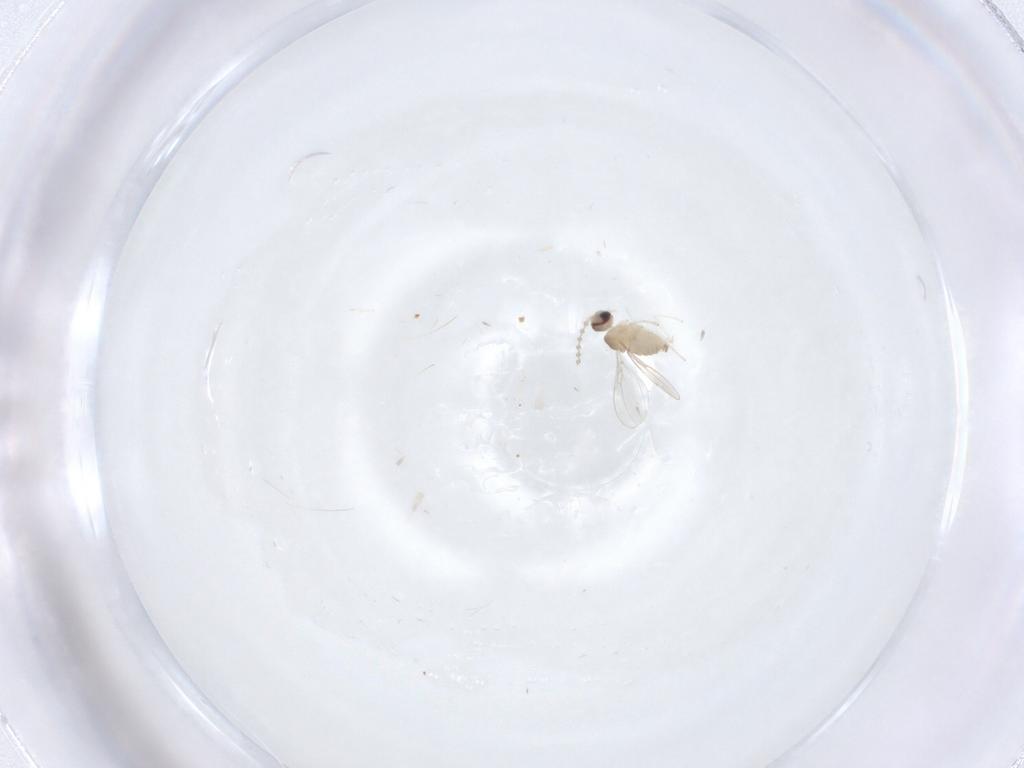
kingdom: Animalia
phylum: Arthropoda
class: Insecta
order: Diptera
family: Cecidomyiidae
